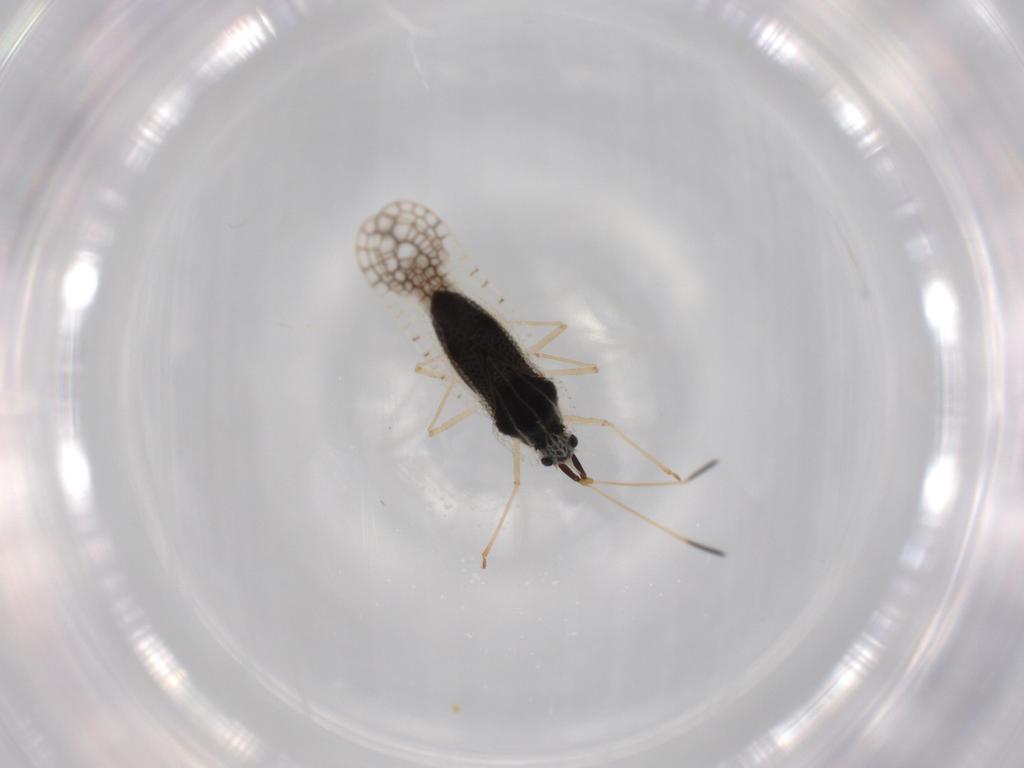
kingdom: Animalia
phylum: Arthropoda
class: Insecta
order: Hemiptera
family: Tingidae
